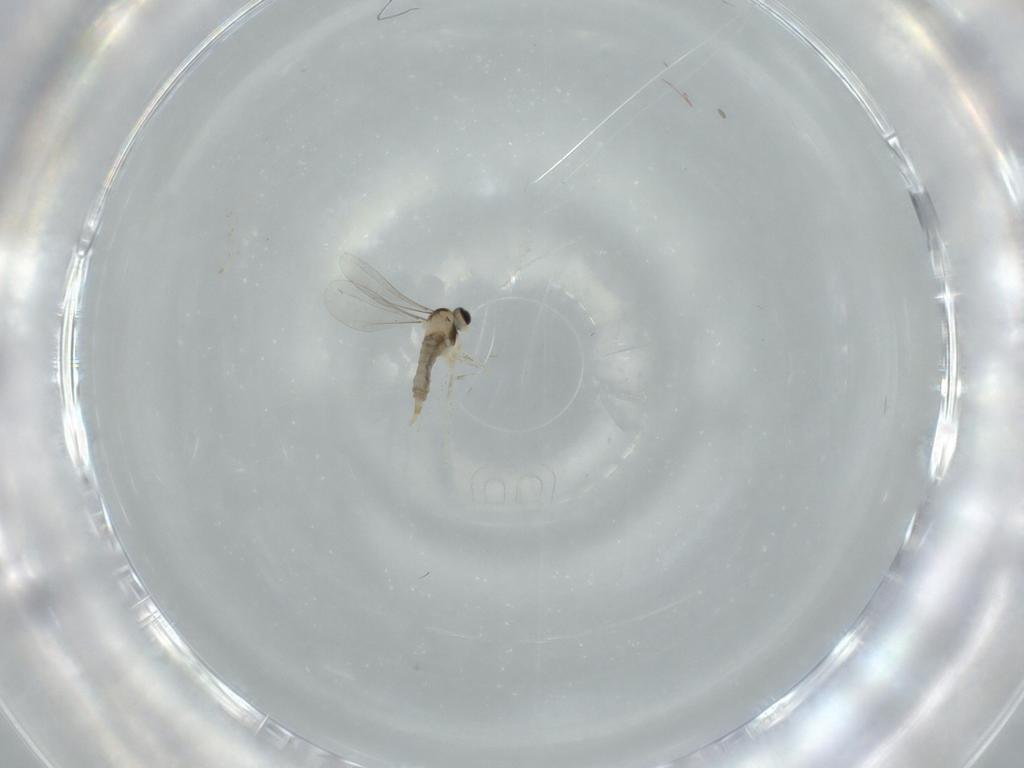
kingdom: Animalia
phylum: Arthropoda
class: Insecta
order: Diptera
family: Cecidomyiidae
